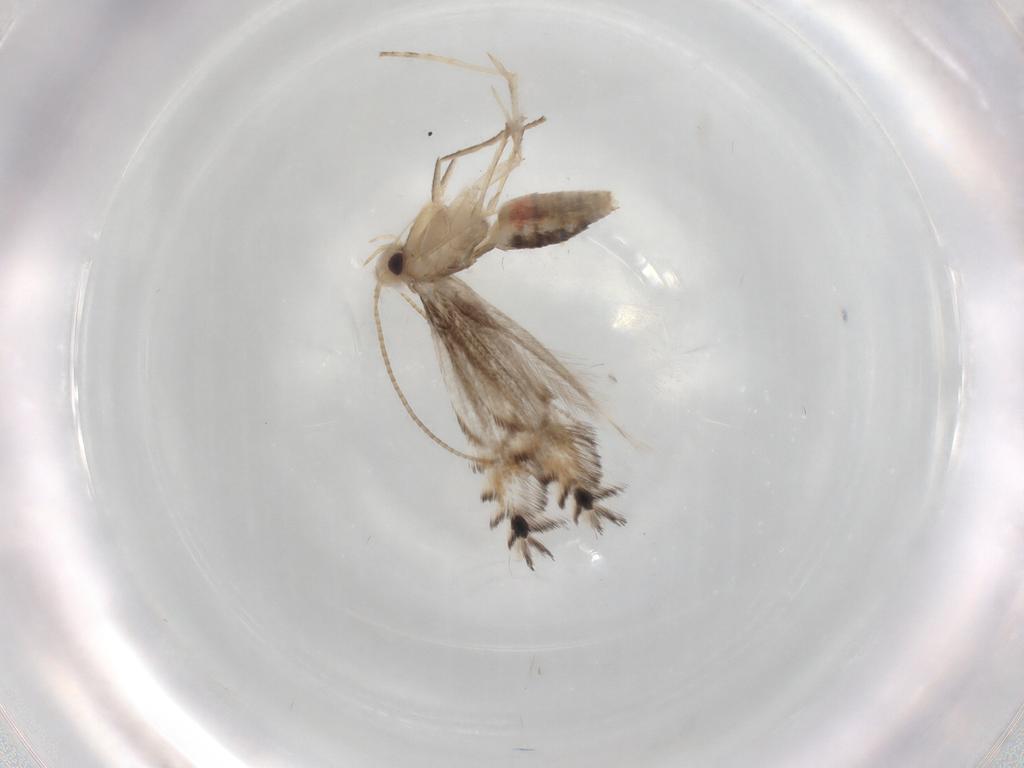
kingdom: Animalia
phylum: Arthropoda
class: Insecta
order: Lepidoptera
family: Gracillariidae
